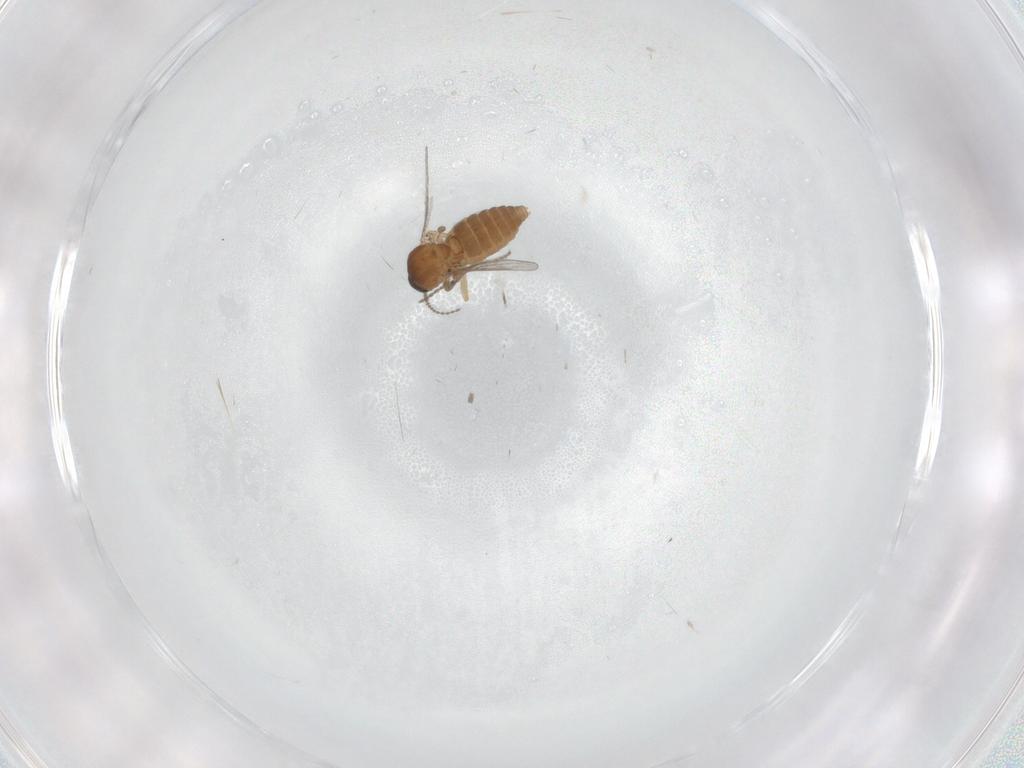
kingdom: Animalia
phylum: Arthropoda
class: Insecta
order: Diptera
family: Ceratopogonidae
